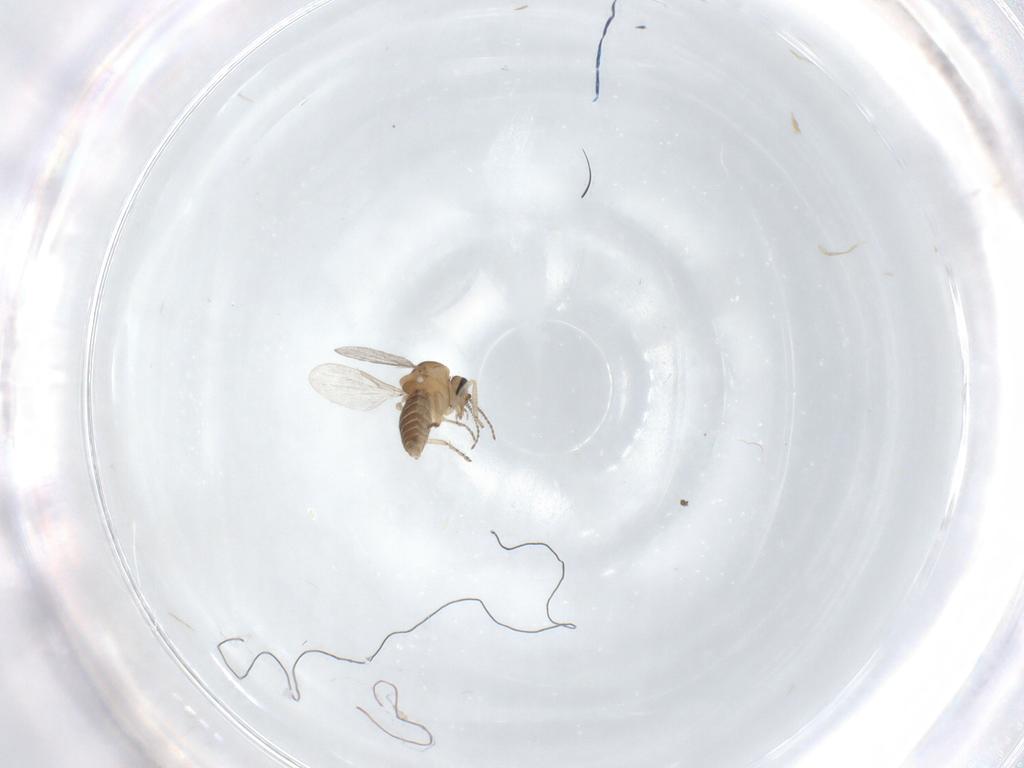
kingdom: Animalia
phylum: Arthropoda
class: Insecta
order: Diptera
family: Ceratopogonidae
